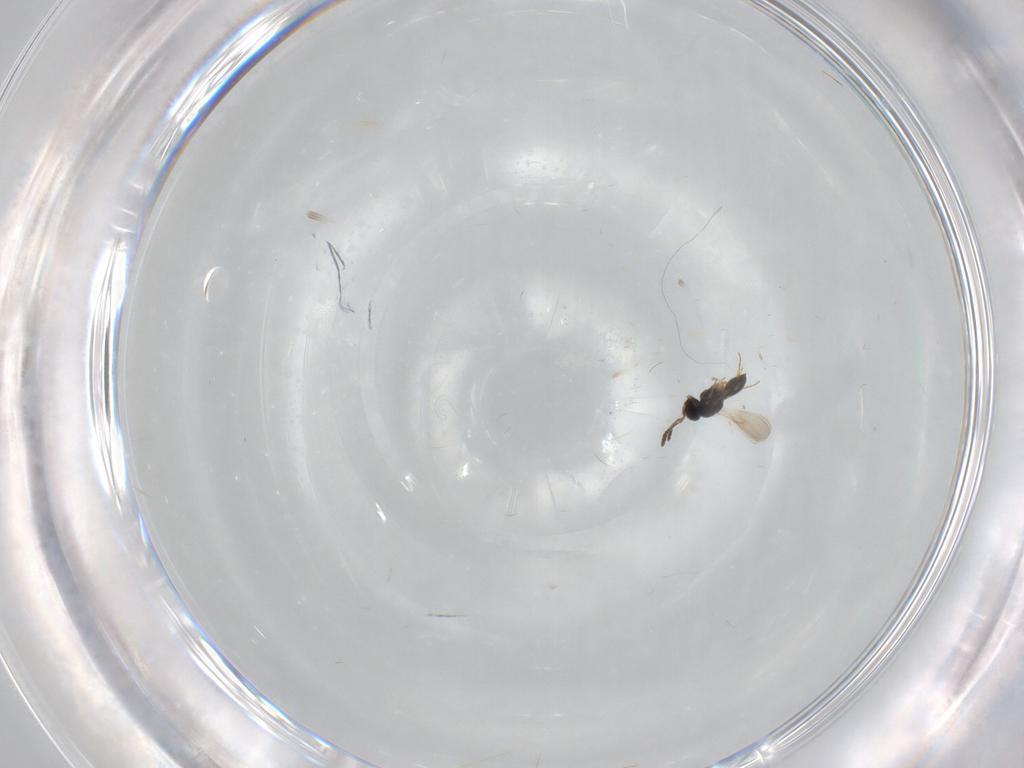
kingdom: Animalia
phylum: Arthropoda
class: Insecta
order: Hymenoptera
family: Scelionidae
